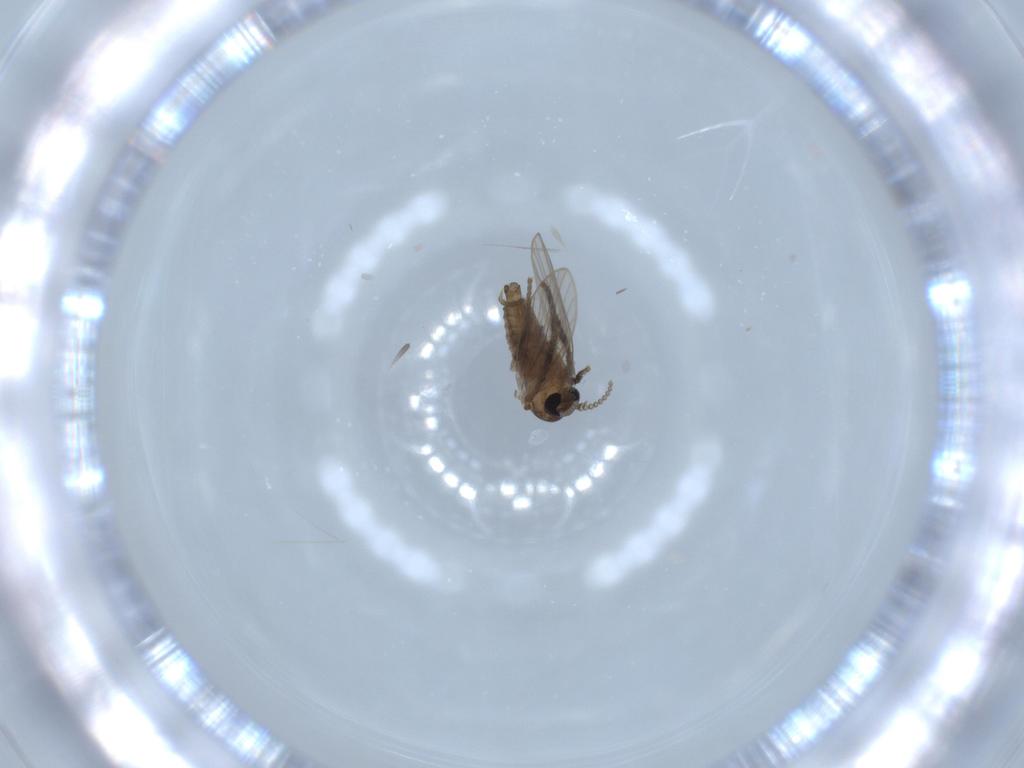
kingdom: Animalia
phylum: Arthropoda
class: Insecta
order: Diptera
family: Psychodidae
